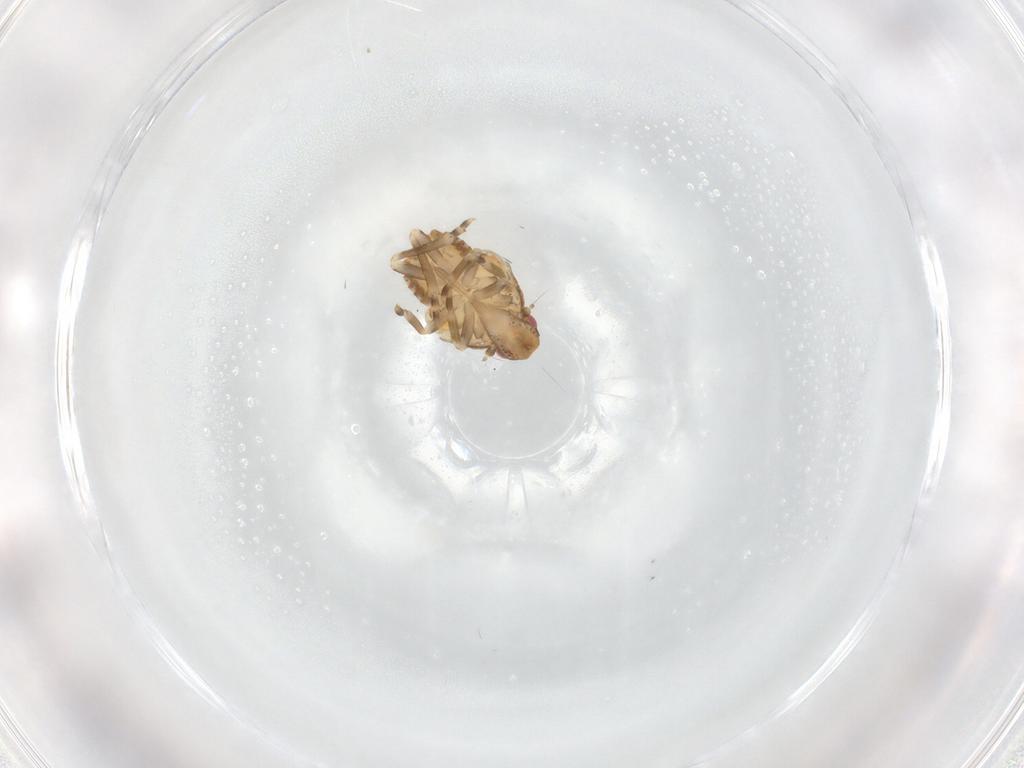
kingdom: Animalia
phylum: Arthropoda
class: Insecta
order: Hemiptera
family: Flatidae
